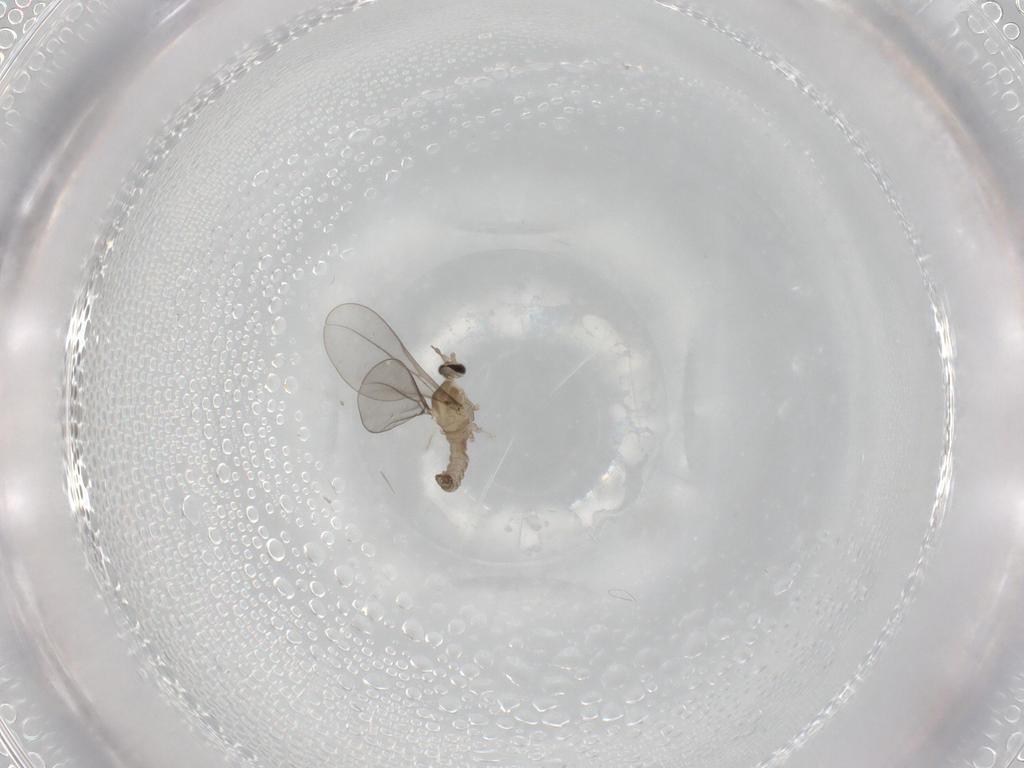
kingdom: Animalia
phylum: Arthropoda
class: Insecta
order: Diptera
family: Cecidomyiidae
